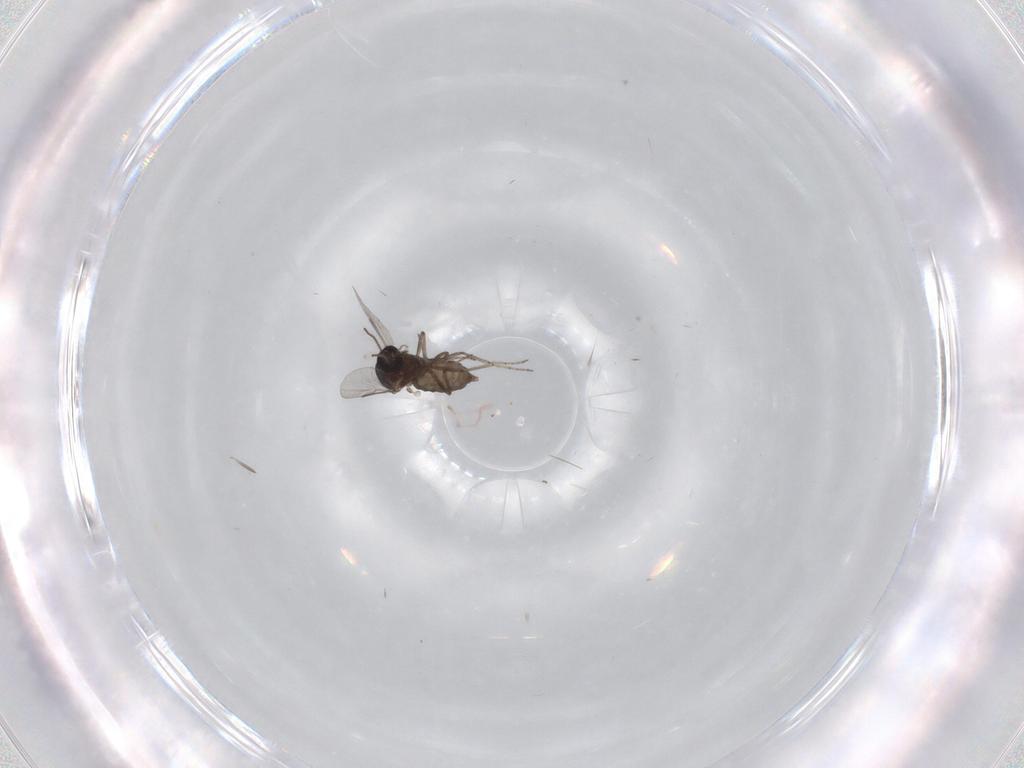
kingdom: Animalia
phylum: Arthropoda
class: Insecta
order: Diptera
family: Ceratopogonidae
